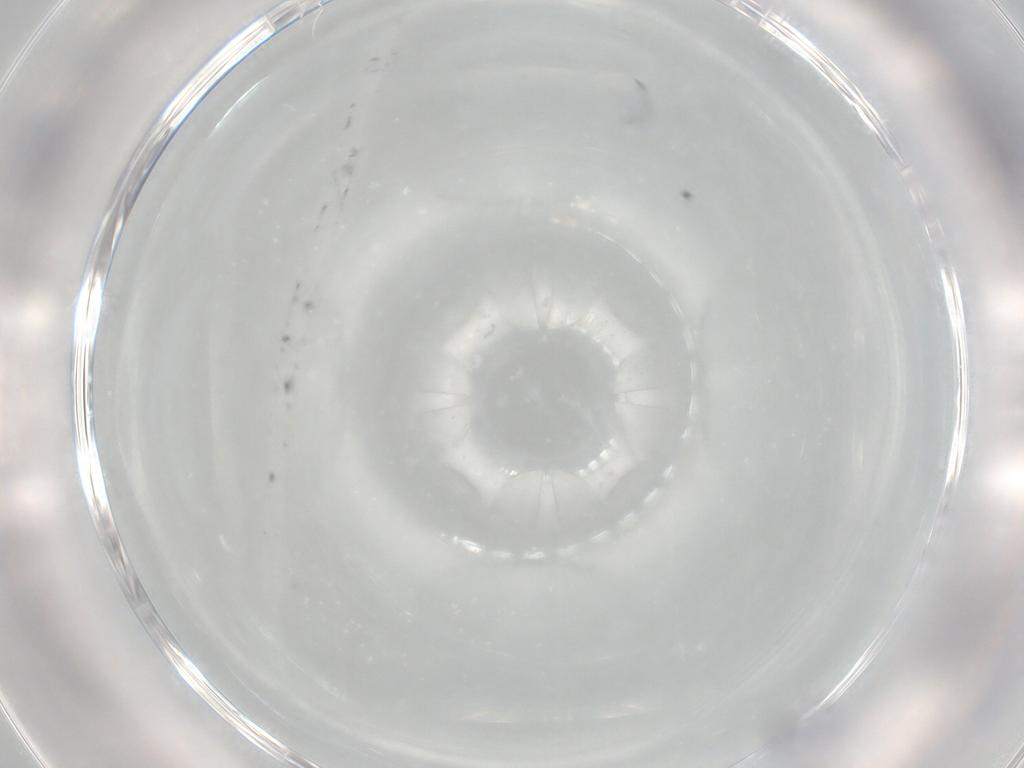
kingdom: Animalia
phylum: Arthropoda
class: Collembola
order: Entomobryomorpha
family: Entomobryidae
